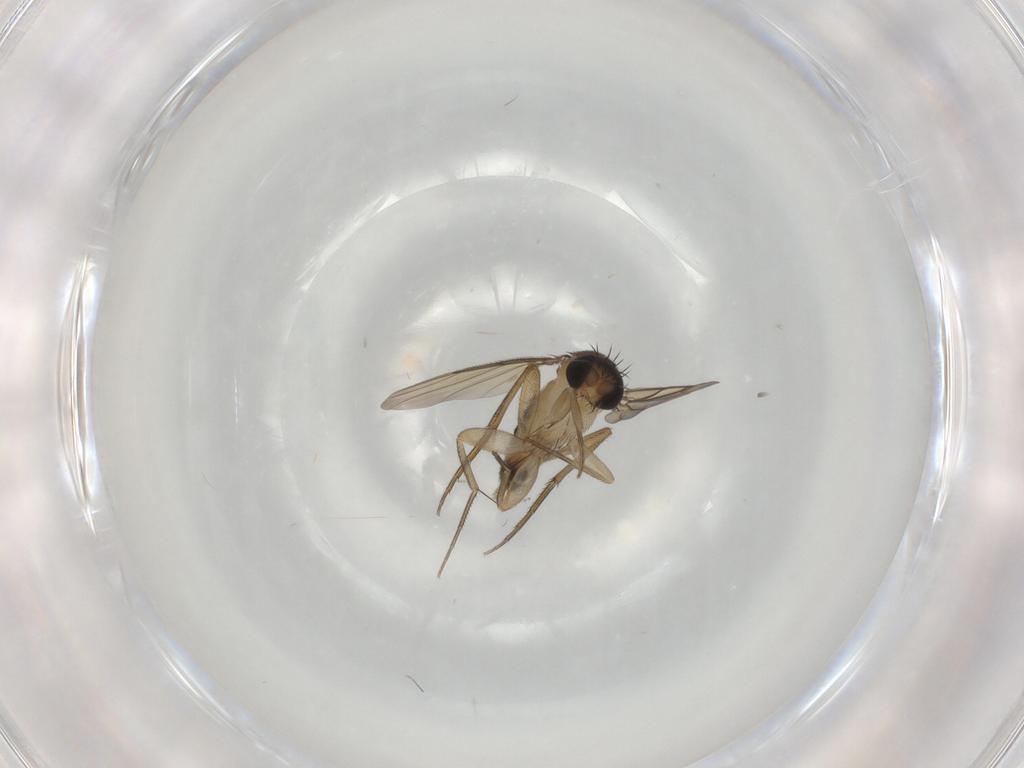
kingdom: Animalia
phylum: Arthropoda
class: Insecta
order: Diptera
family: Chironomidae
